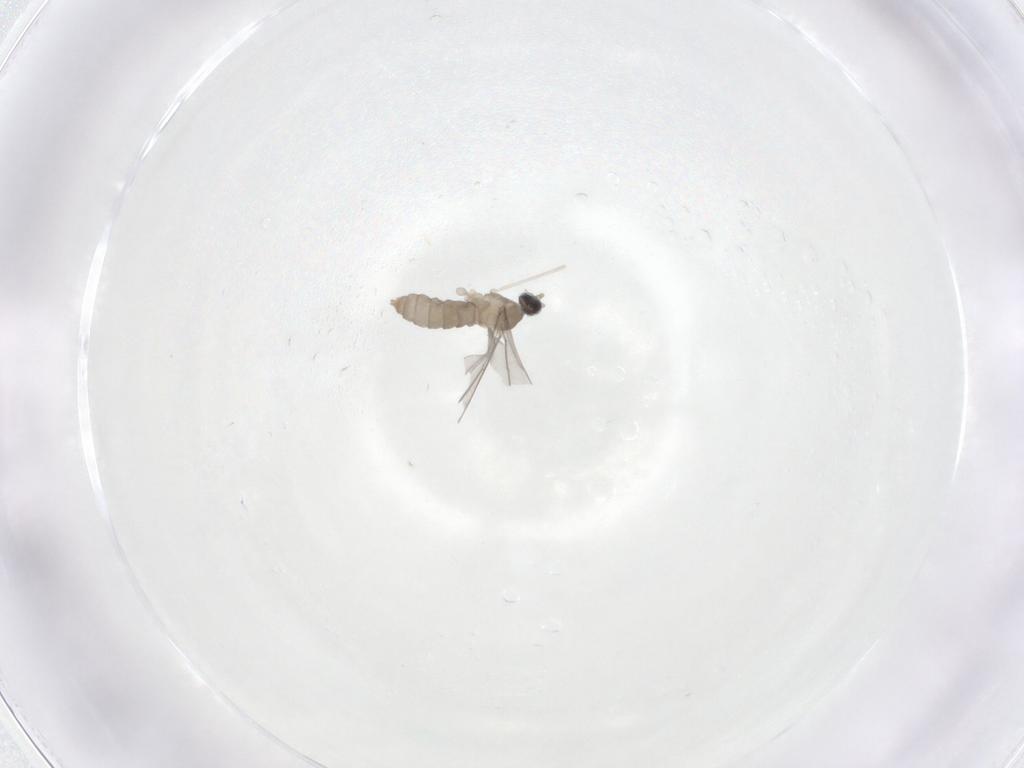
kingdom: Animalia
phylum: Arthropoda
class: Insecta
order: Diptera
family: Cecidomyiidae
